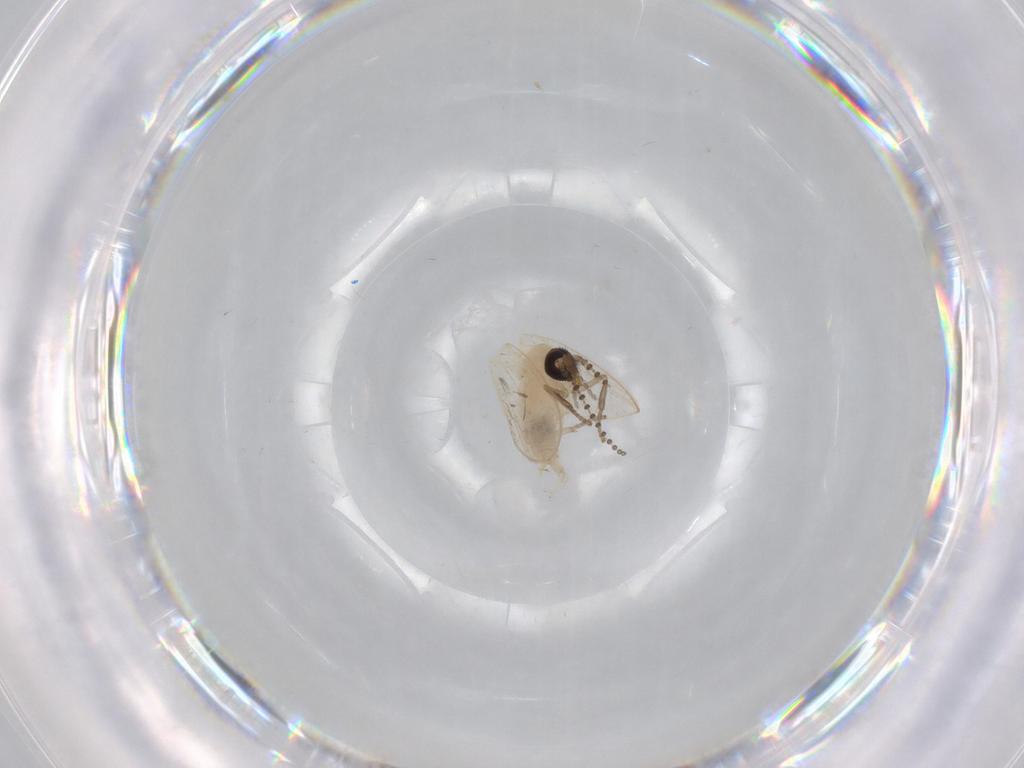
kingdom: Animalia
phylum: Arthropoda
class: Insecta
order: Diptera
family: Psychodidae
